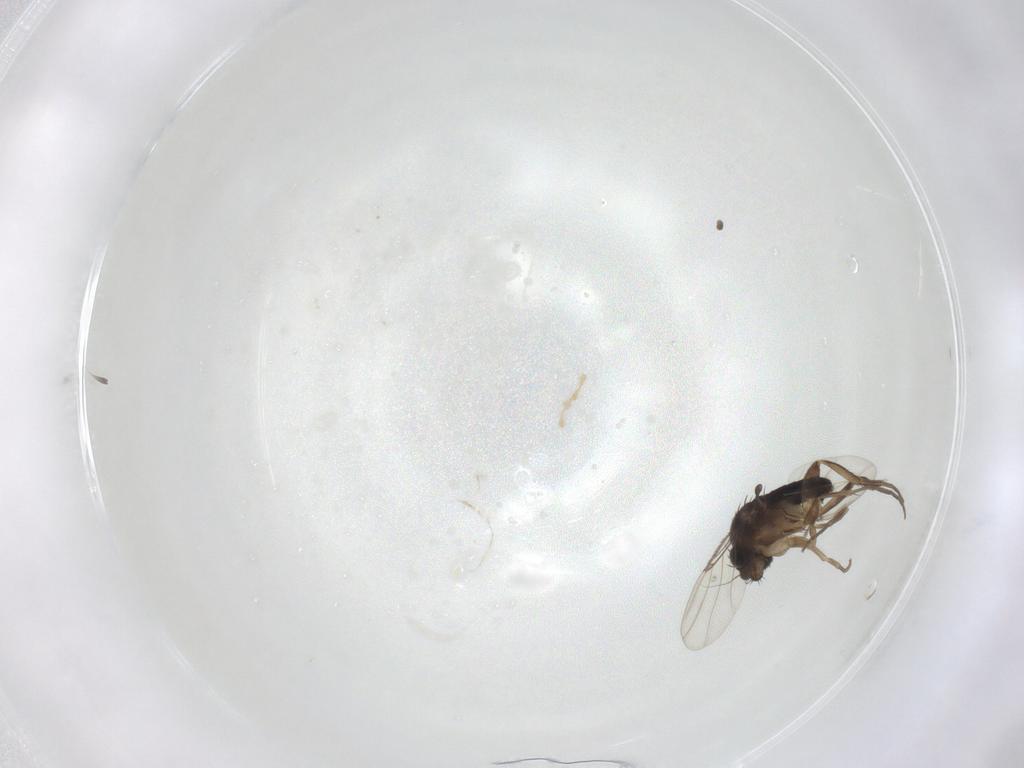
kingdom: Animalia
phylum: Arthropoda
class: Insecta
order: Diptera
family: Phoridae
